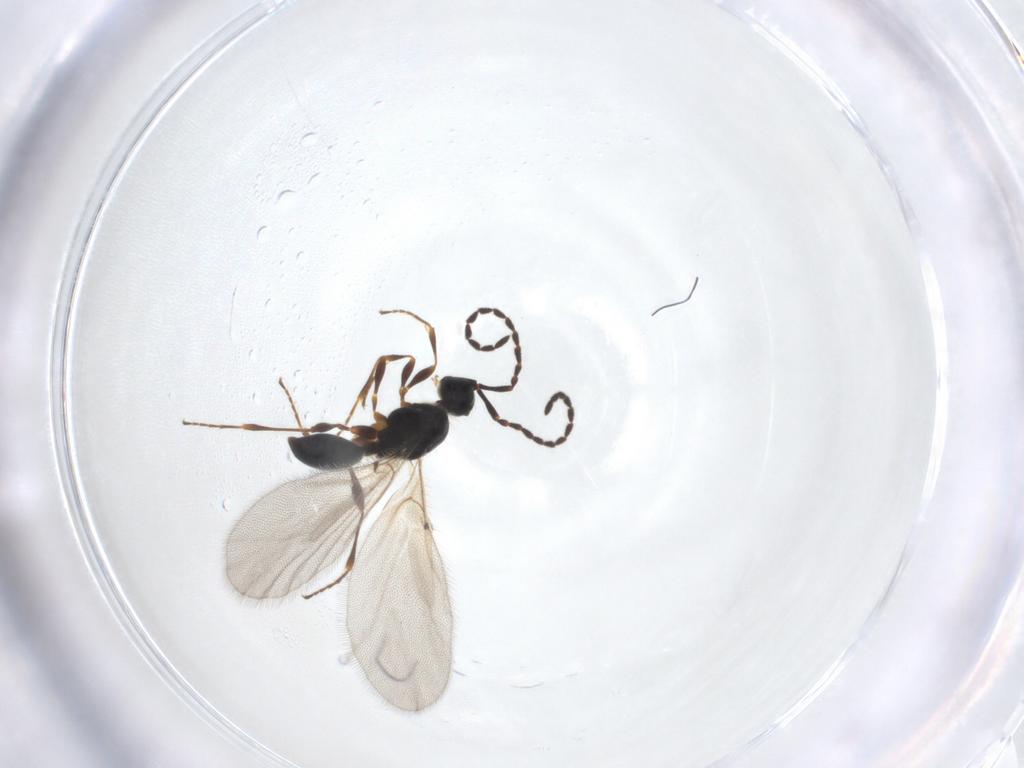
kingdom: Animalia
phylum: Arthropoda
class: Insecta
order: Hymenoptera
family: Diapriidae
